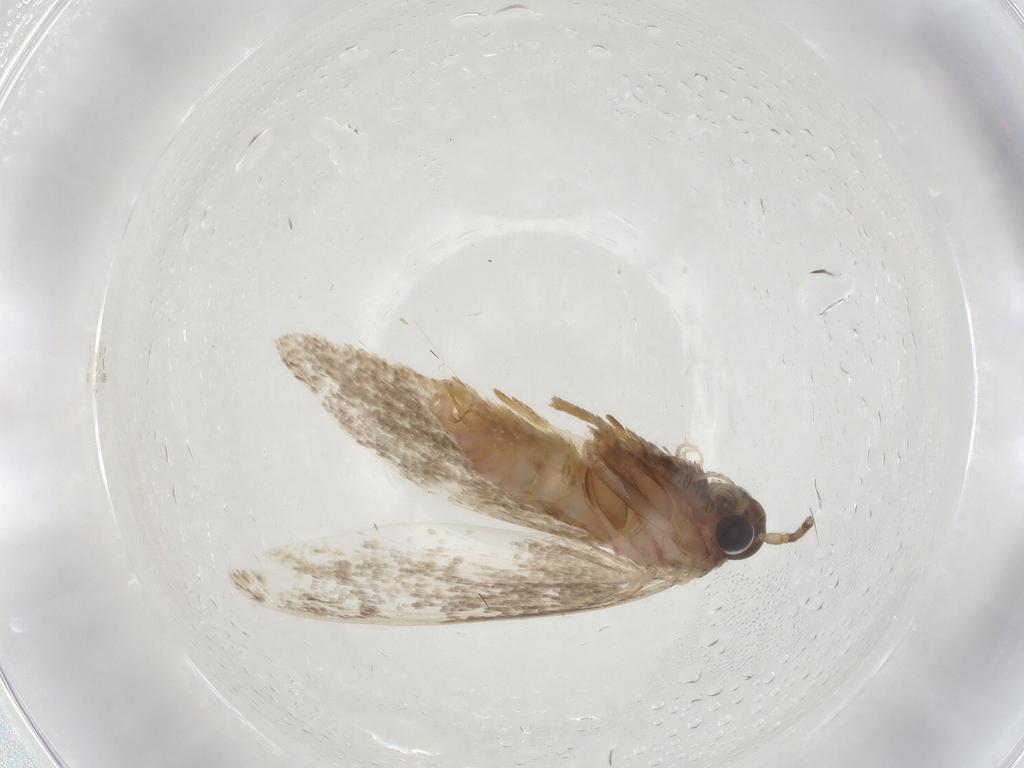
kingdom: Animalia
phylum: Arthropoda
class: Insecta
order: Lepidoptera
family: Autostichidae
